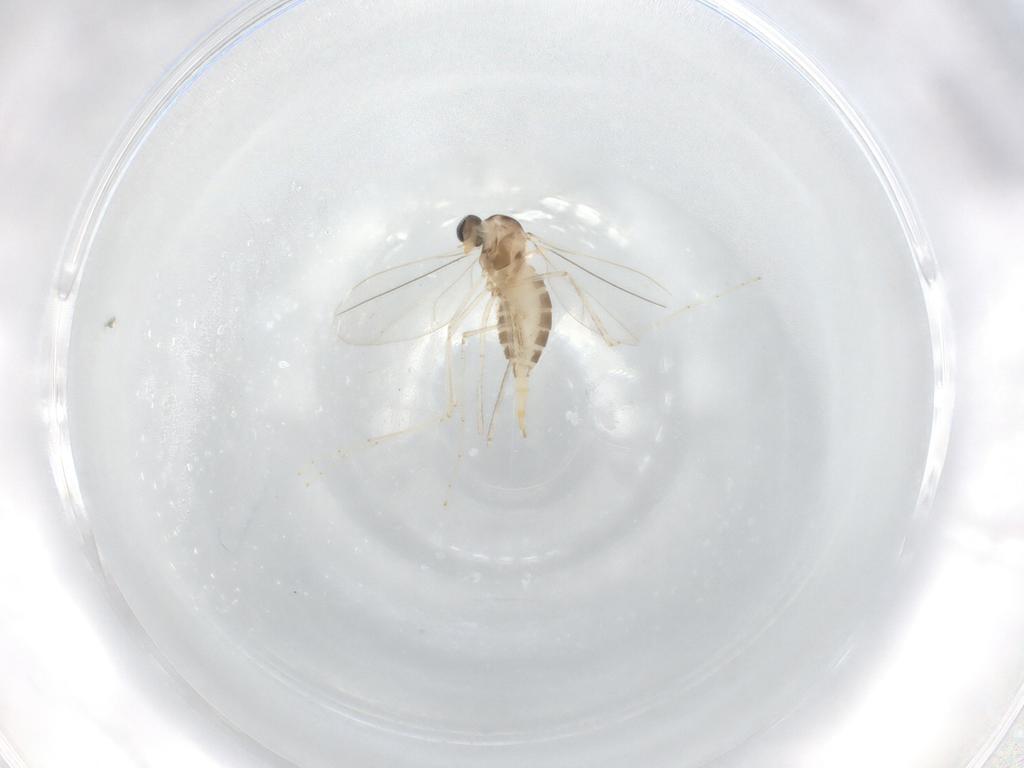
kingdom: Animalia
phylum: Arthropoda
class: Insecta
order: Diptera
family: Cecidomyiidae
